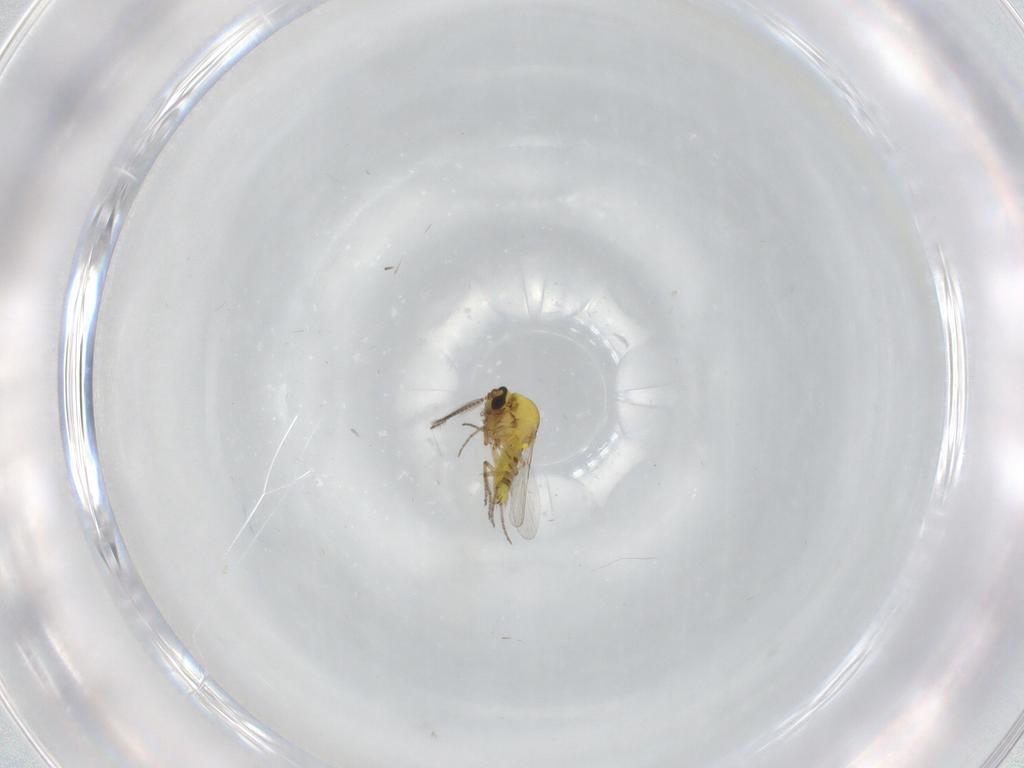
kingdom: Animalia
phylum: Arthropoda
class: Insecta
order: Diptera
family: Ceratopogonidae
